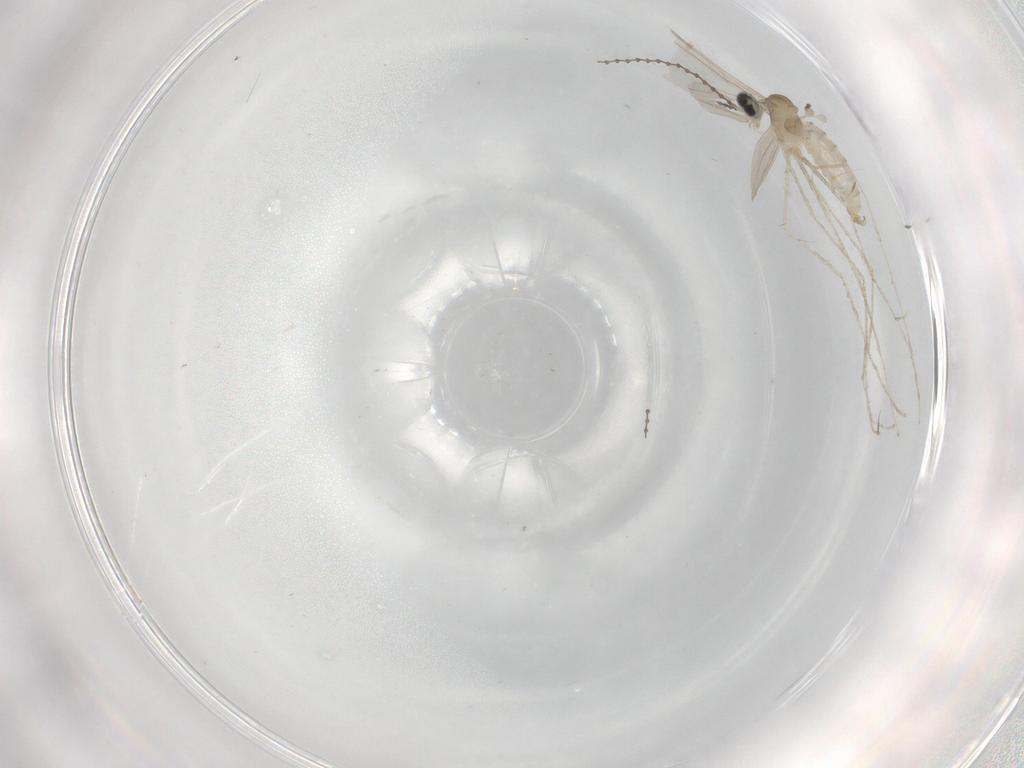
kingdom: Animalia
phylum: Arthropoda
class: Insecta
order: Diptera
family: Cecidomyiidae
